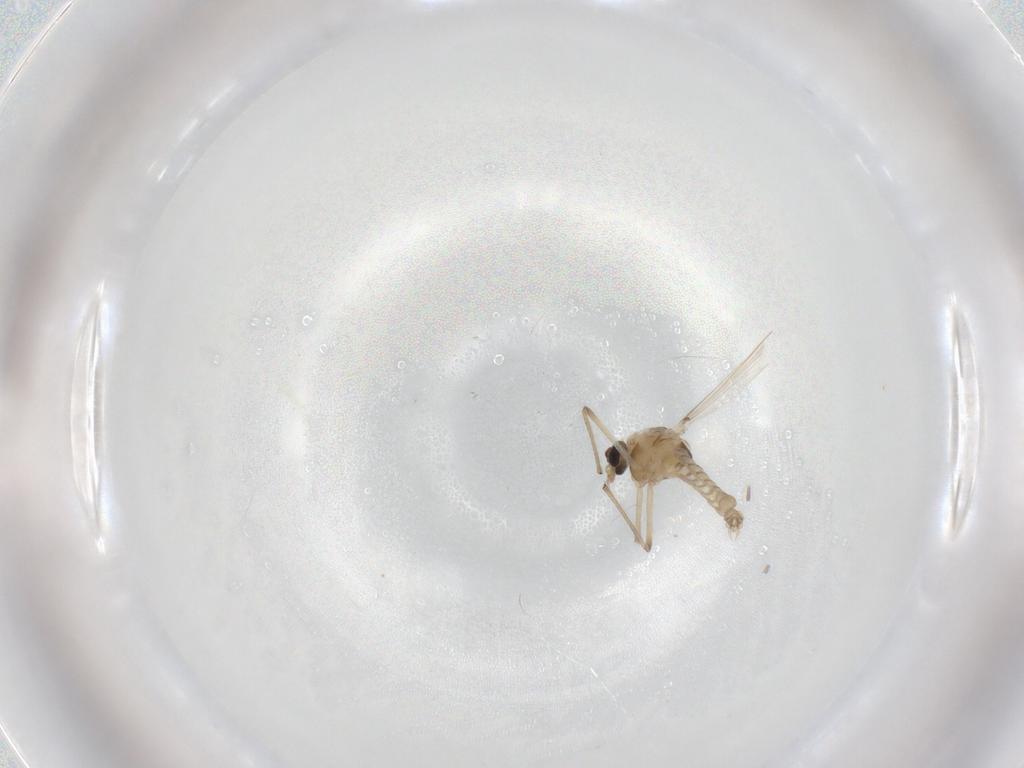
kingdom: Animalia
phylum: Arthropoda
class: Insecta
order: Diptera
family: Chironomidae
